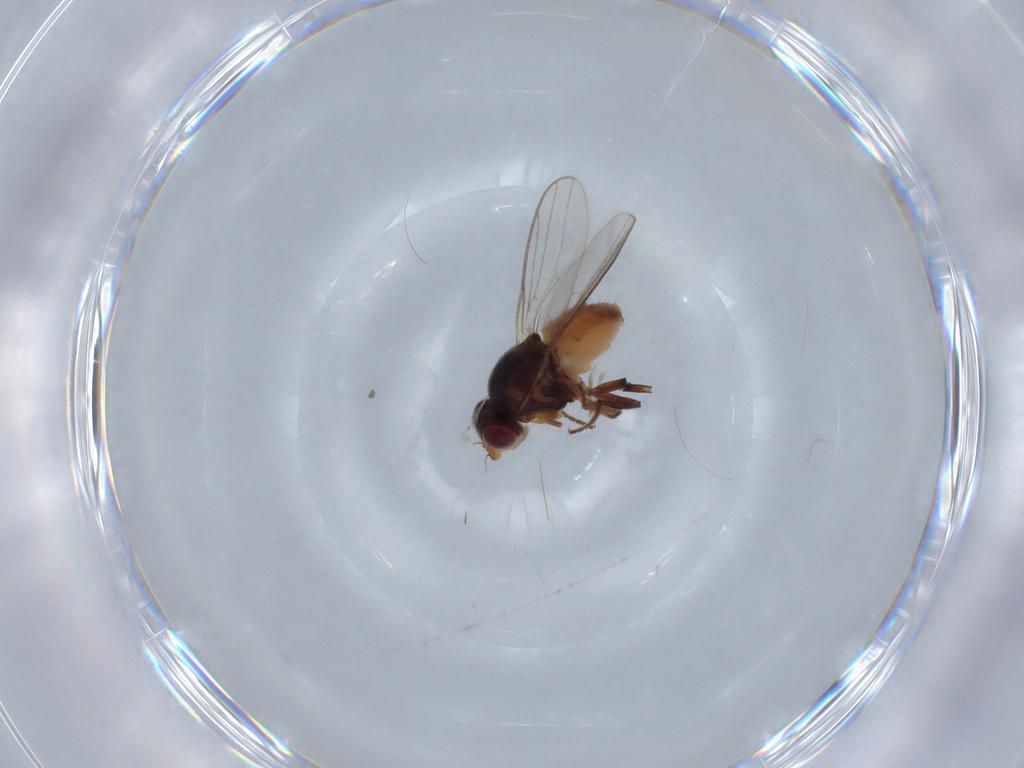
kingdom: Animalia
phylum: Arthropoda
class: Insecta
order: Diptera
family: Chloropidae
